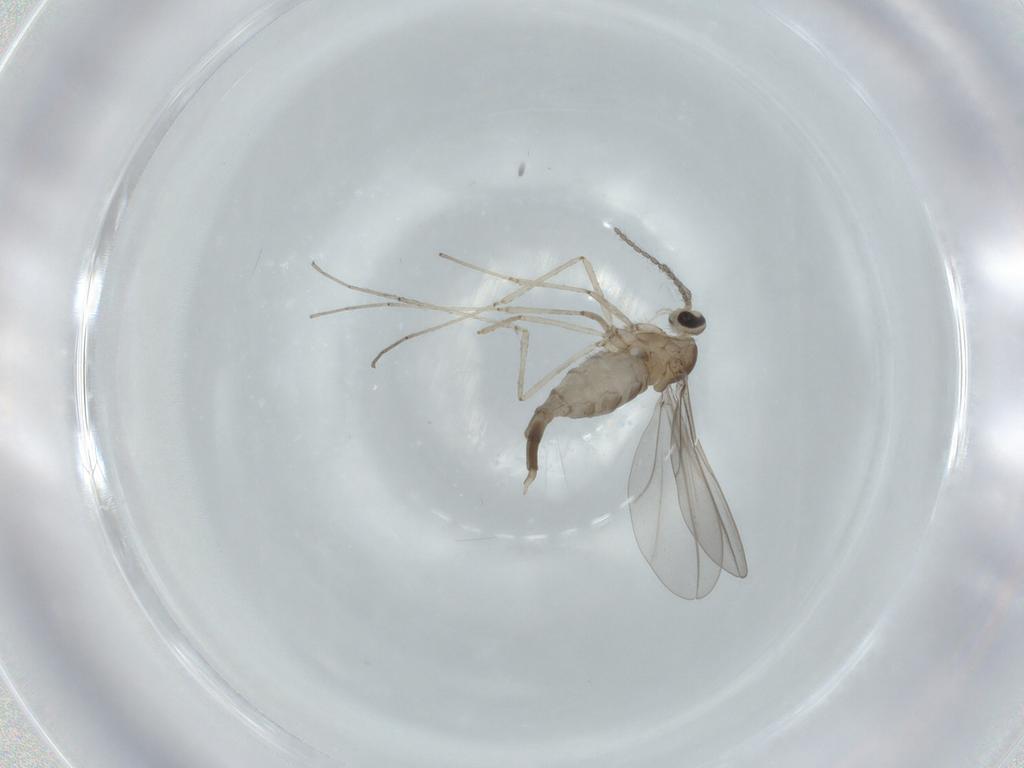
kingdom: Animalia
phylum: Arthropoda
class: Insecta
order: Diptera
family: Cecidomyiidae
